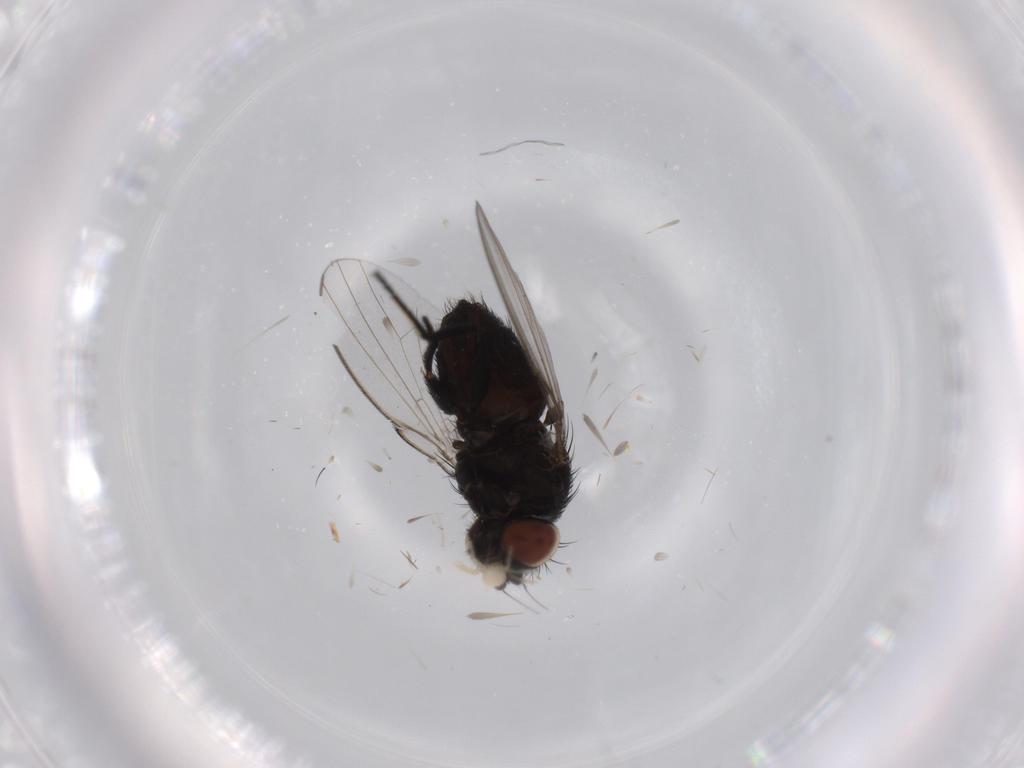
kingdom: Animalia
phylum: Arthropoda
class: Insecta
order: Diptera
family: Milichiidae
